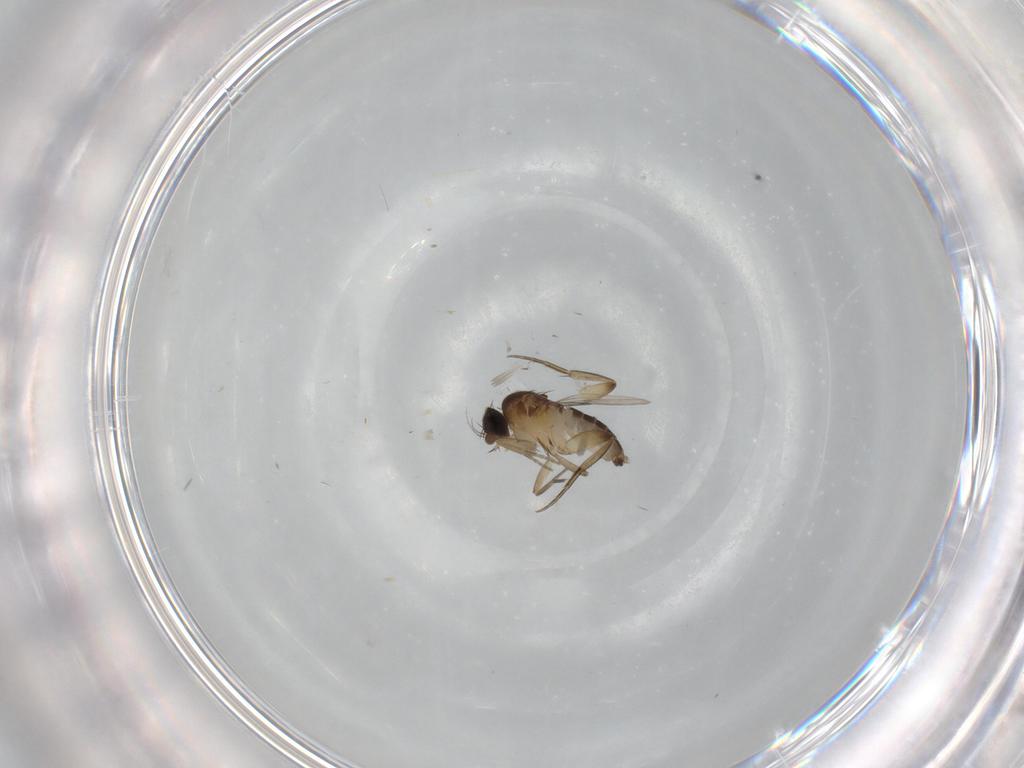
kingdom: Animalia
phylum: Arthropoda
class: Insecta
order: Diptera
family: Phoridae
